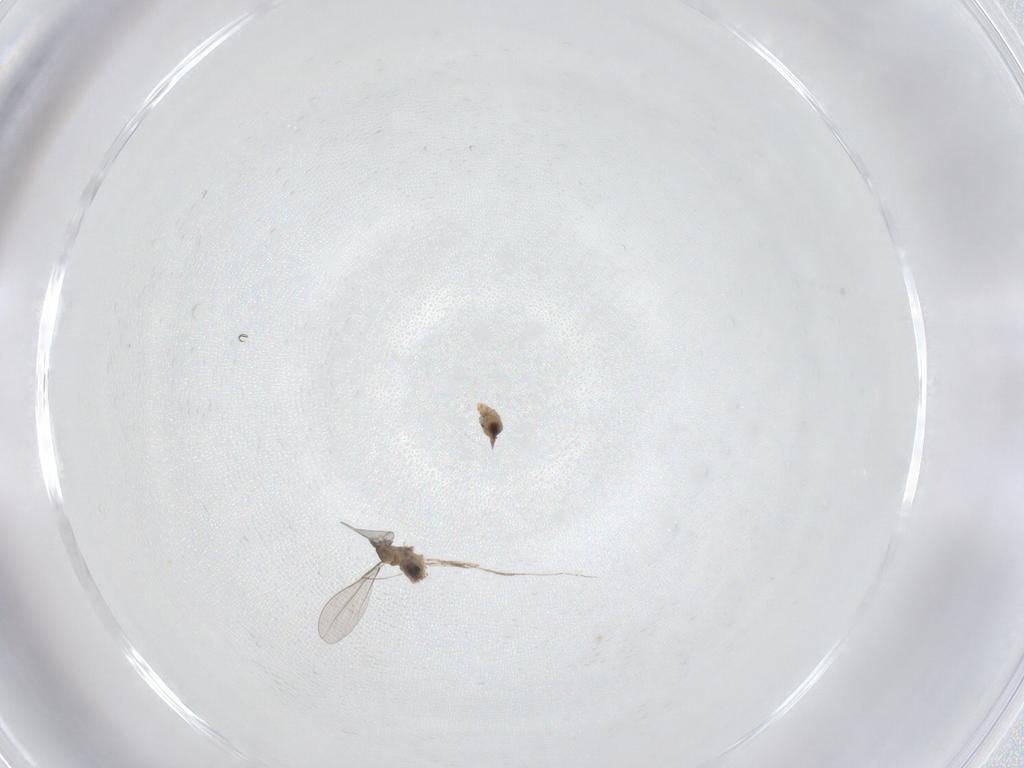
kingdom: Animalia
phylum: Arthropoda
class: Insecta
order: Diptera
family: Cecidomyiidae
